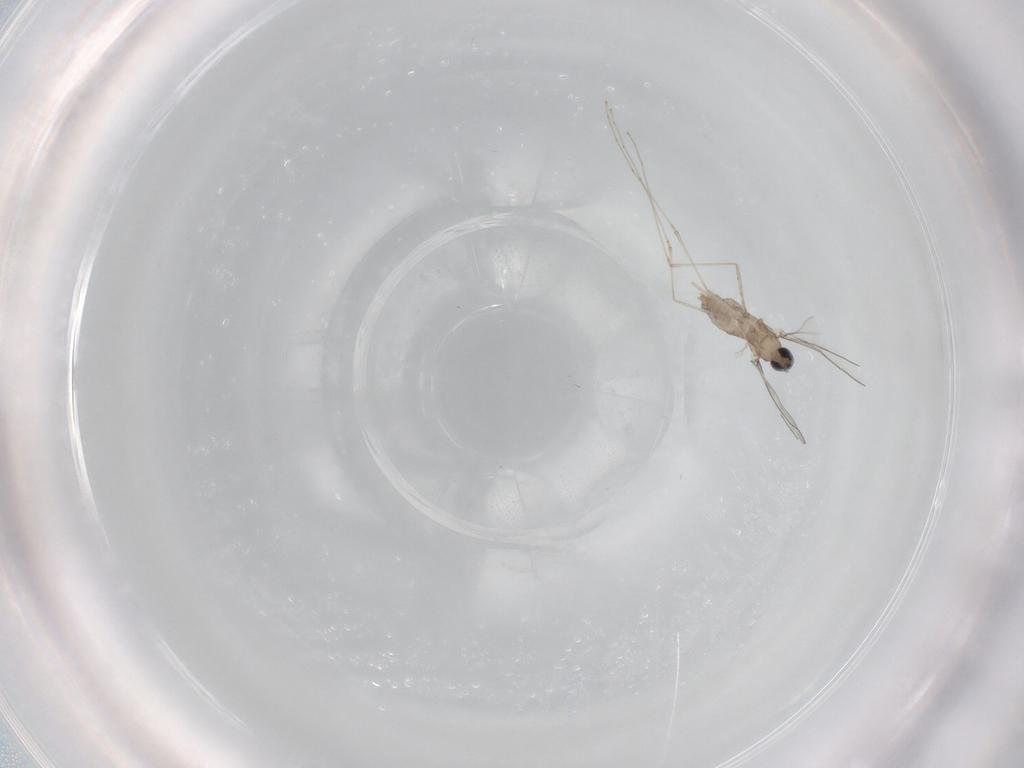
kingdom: Animalia
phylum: Arthropoda
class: Insecta
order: Diptera
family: Cecidomyiidae
